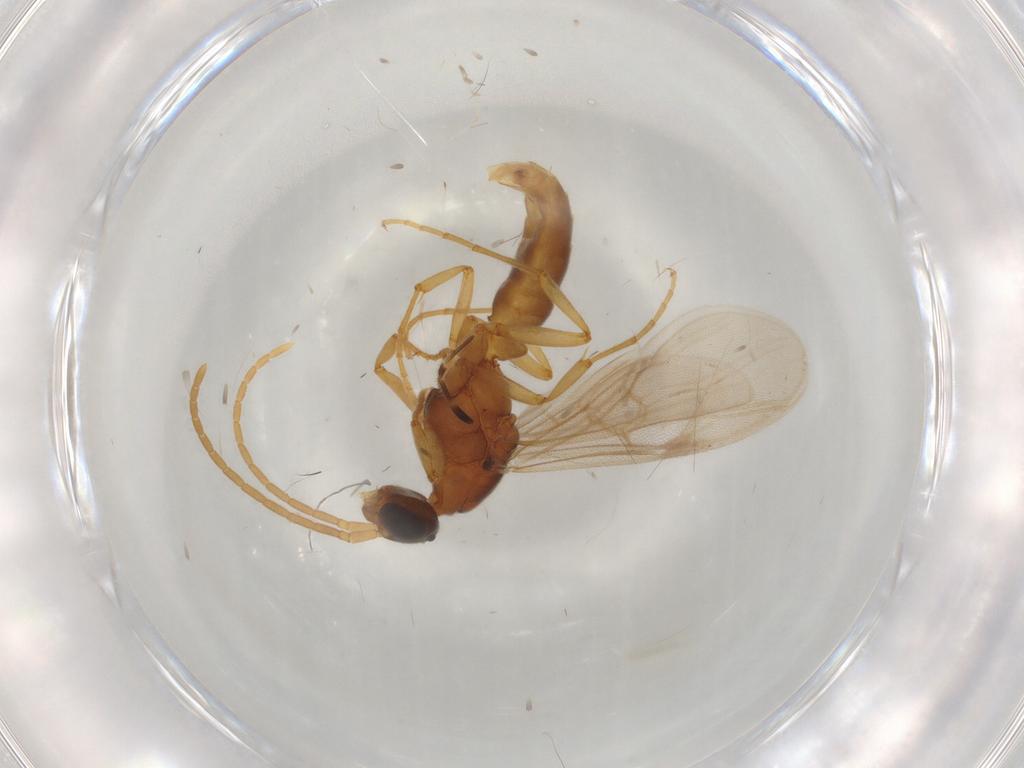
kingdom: Animalia
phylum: Arthropoda
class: Insecta
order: Hymenoptera
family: Formicidae
